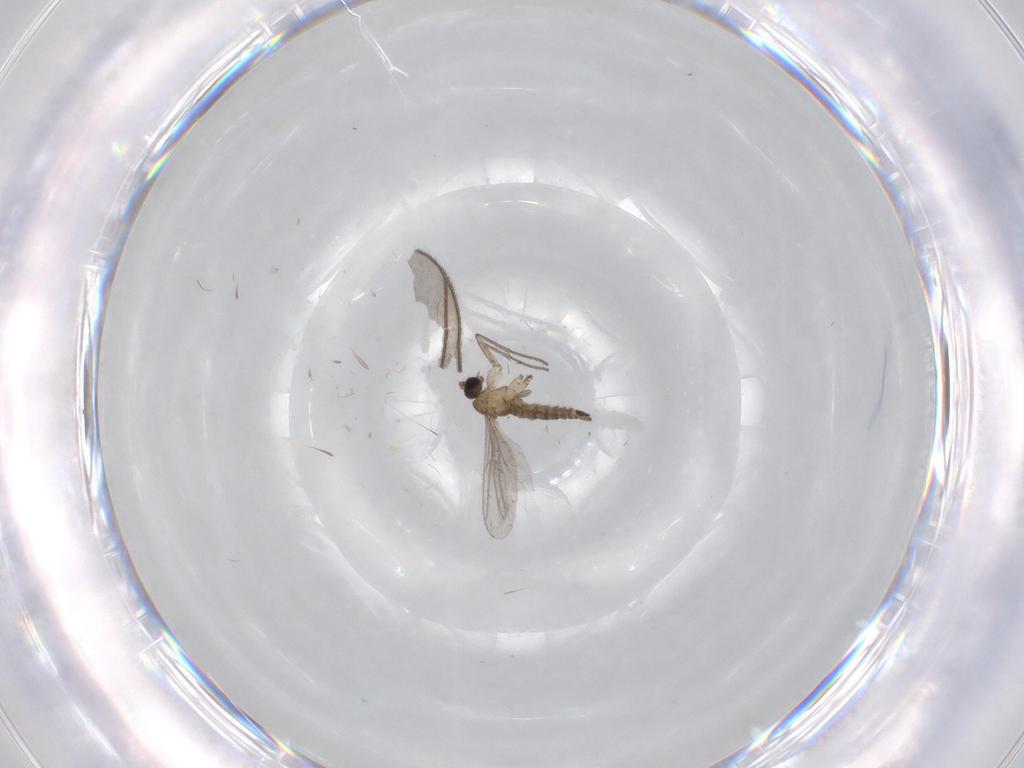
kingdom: Animalia
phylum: Arthropoda
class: Insecta
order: Diptera
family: Sciaridae
